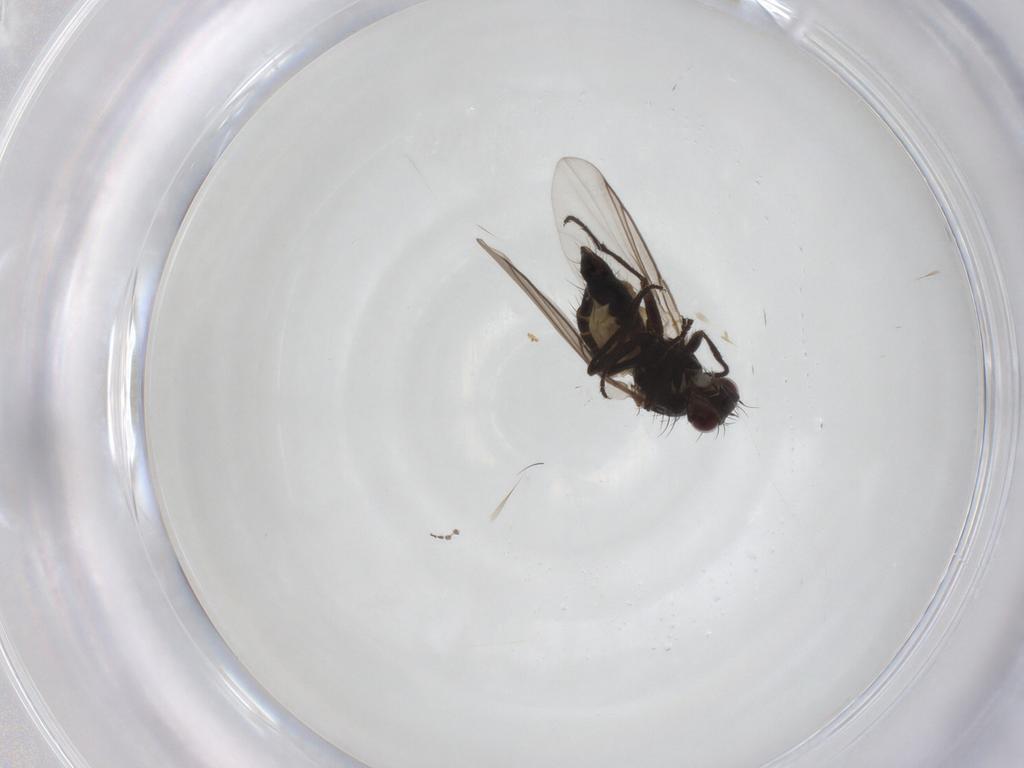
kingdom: Animalia
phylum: Arthropoda
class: Insecta
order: Diptera
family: Agromyzidae
